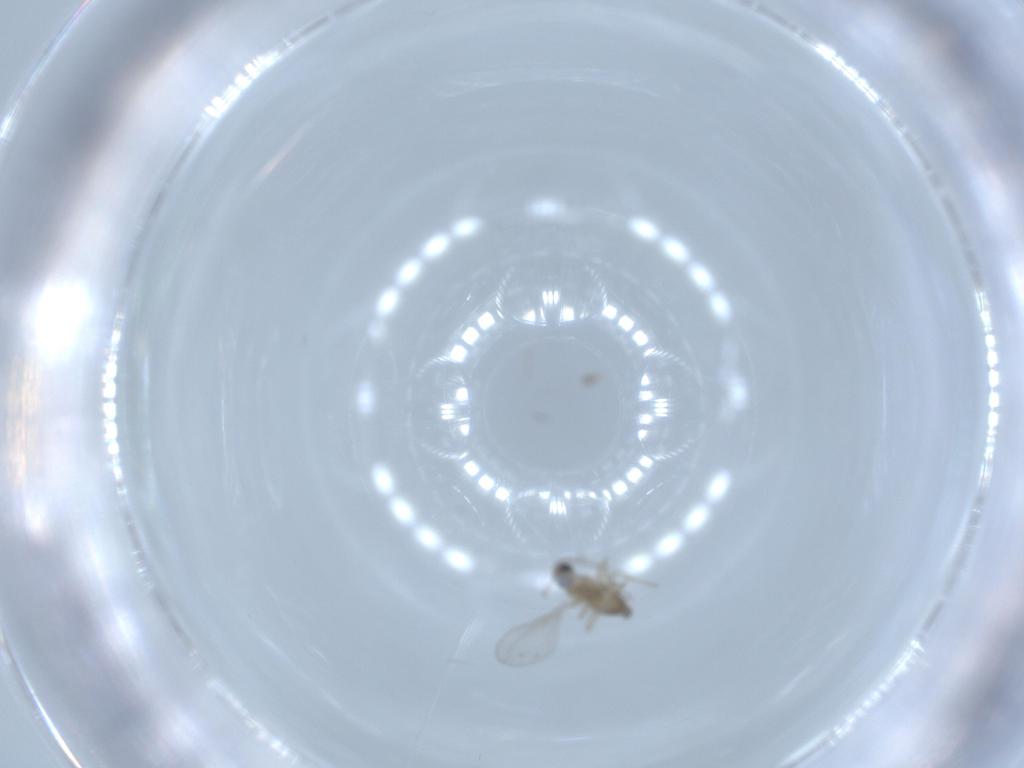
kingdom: Animalia
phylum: Arthropoda
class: Insecta
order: Diptera
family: Cecidomyiidae
